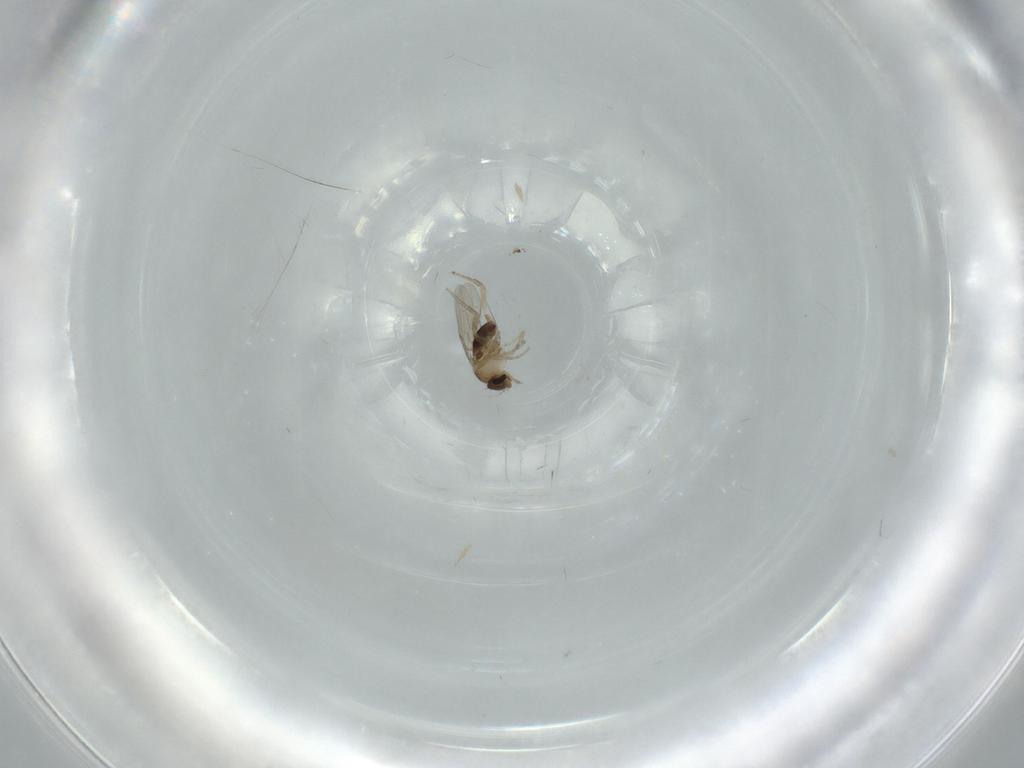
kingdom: Animalia
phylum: Arthropoda
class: Insecta
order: Diptera
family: Phoridae
